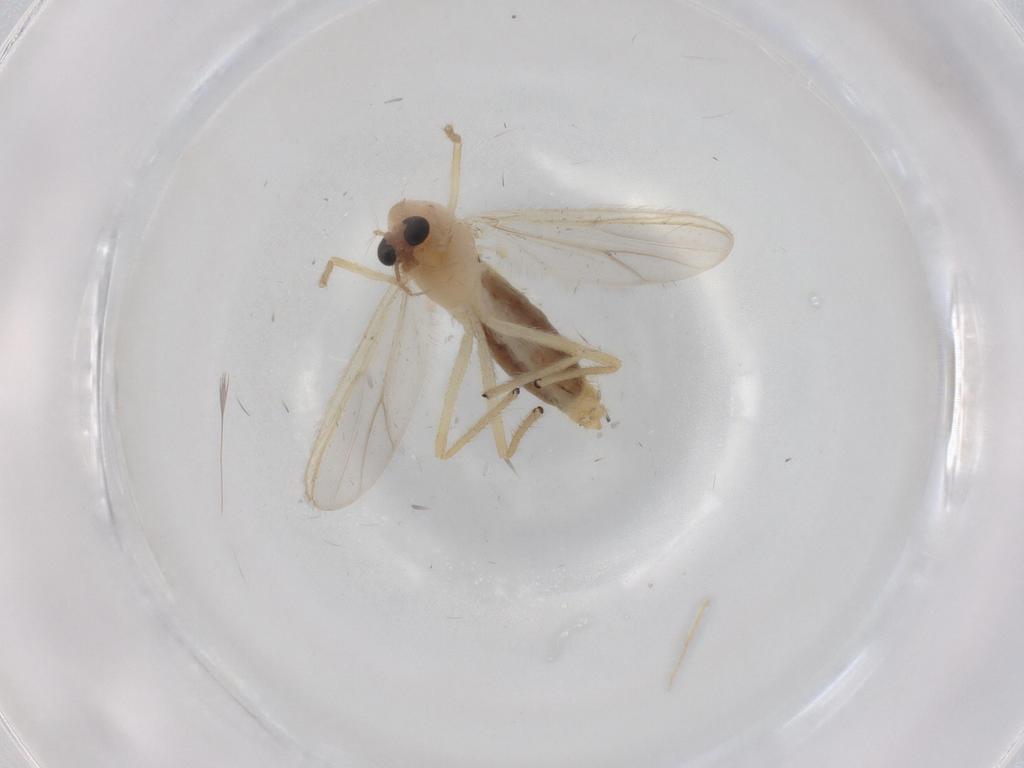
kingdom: Animalia
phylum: Arthropoda
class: Insecta
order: Diptera
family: Chironomidae
